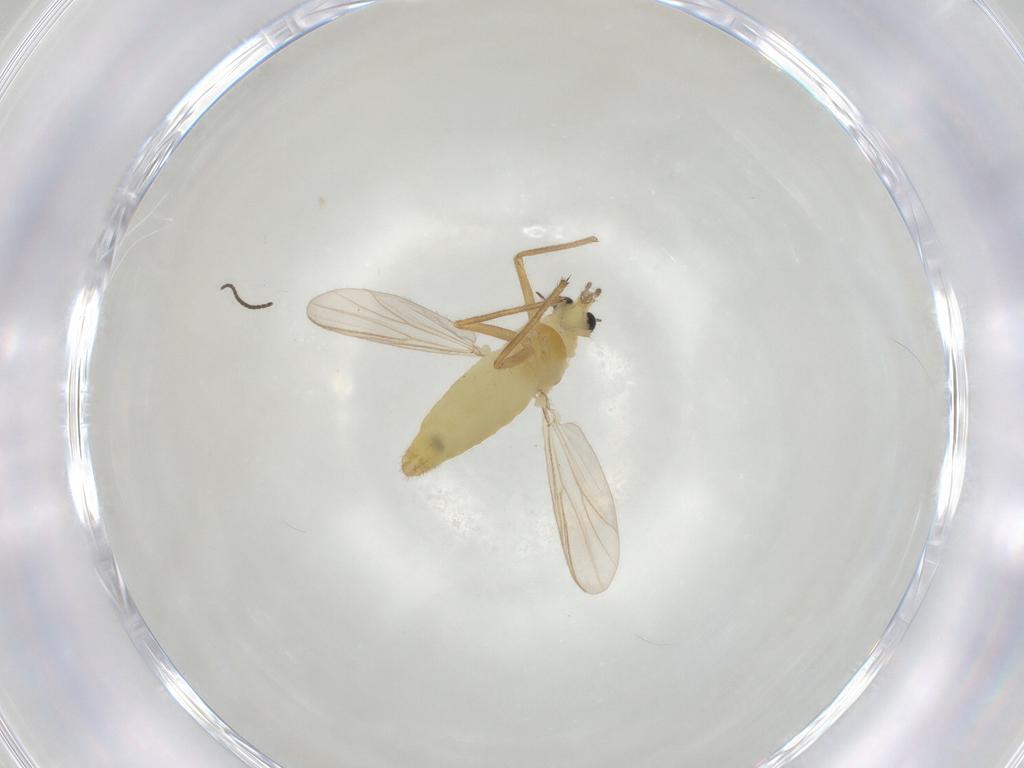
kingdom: Animalia
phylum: Arthropoda
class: Insecta
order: Diptera
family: Chironomidae
